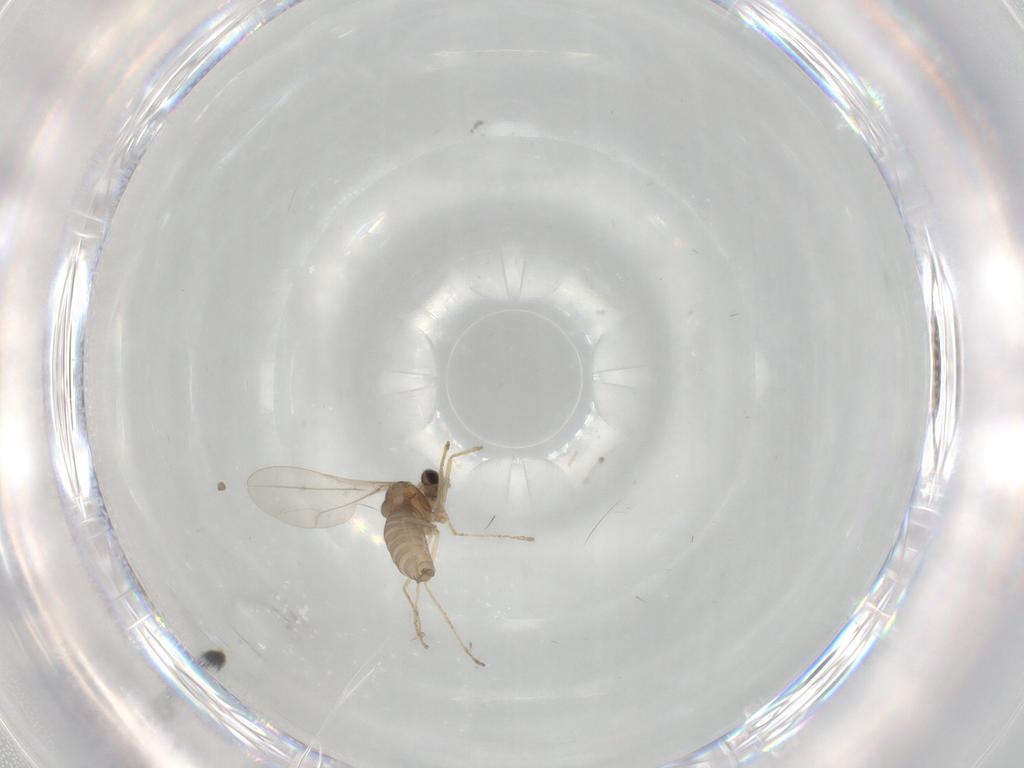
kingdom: Animalia
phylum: Arthropoda
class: Insecta
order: Diptera
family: Cecidomyiidae
